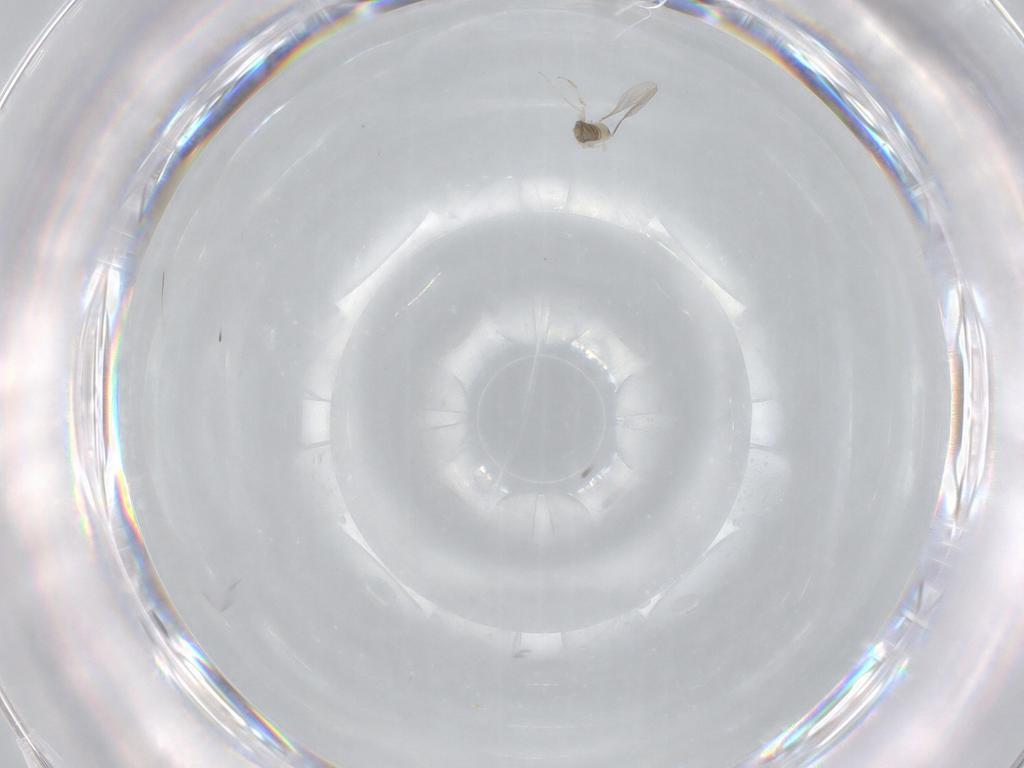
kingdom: Animalia
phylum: Arthropoda
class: Insecta
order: Diptera
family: Cecidomyiidae
